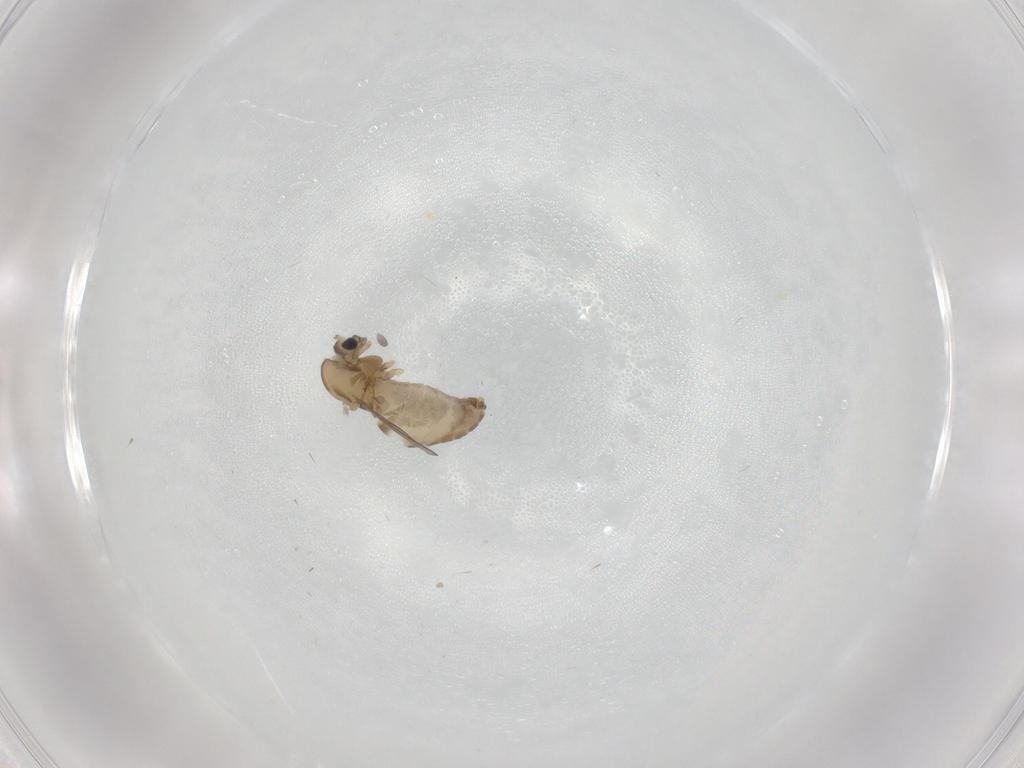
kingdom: Animalia
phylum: Arthropoda
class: Insecta
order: Diptera
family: Chironomidae
